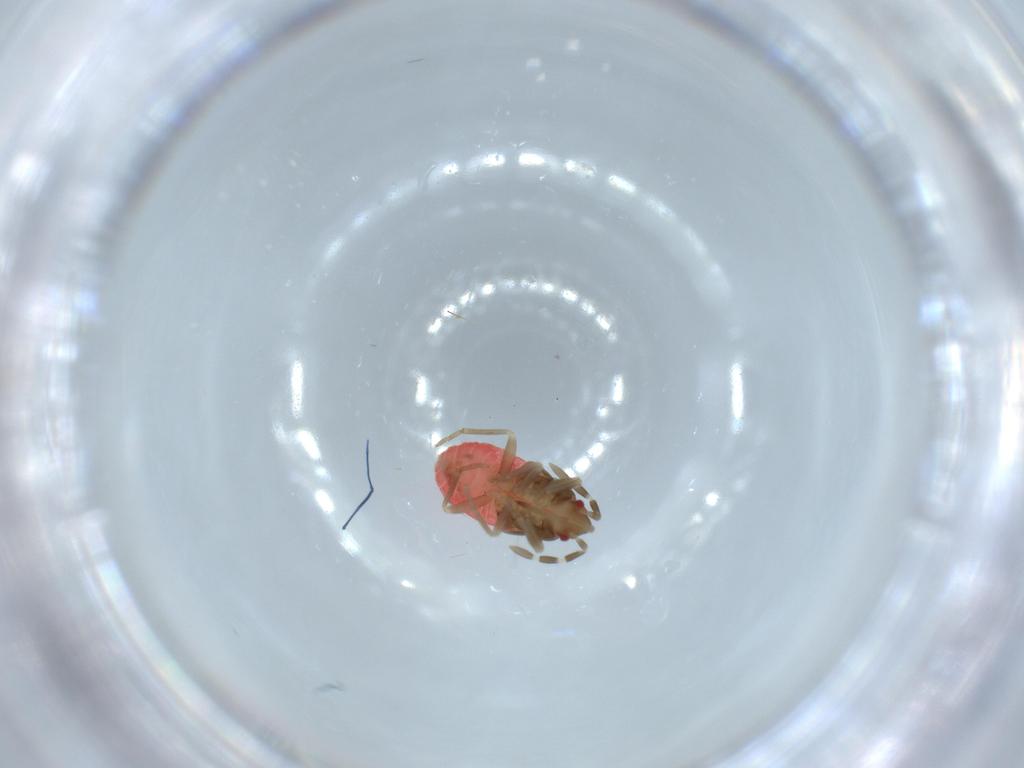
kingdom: Animalia
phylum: Arthropoda
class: Insecta
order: Hemiptera
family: Rhyparochromidae
